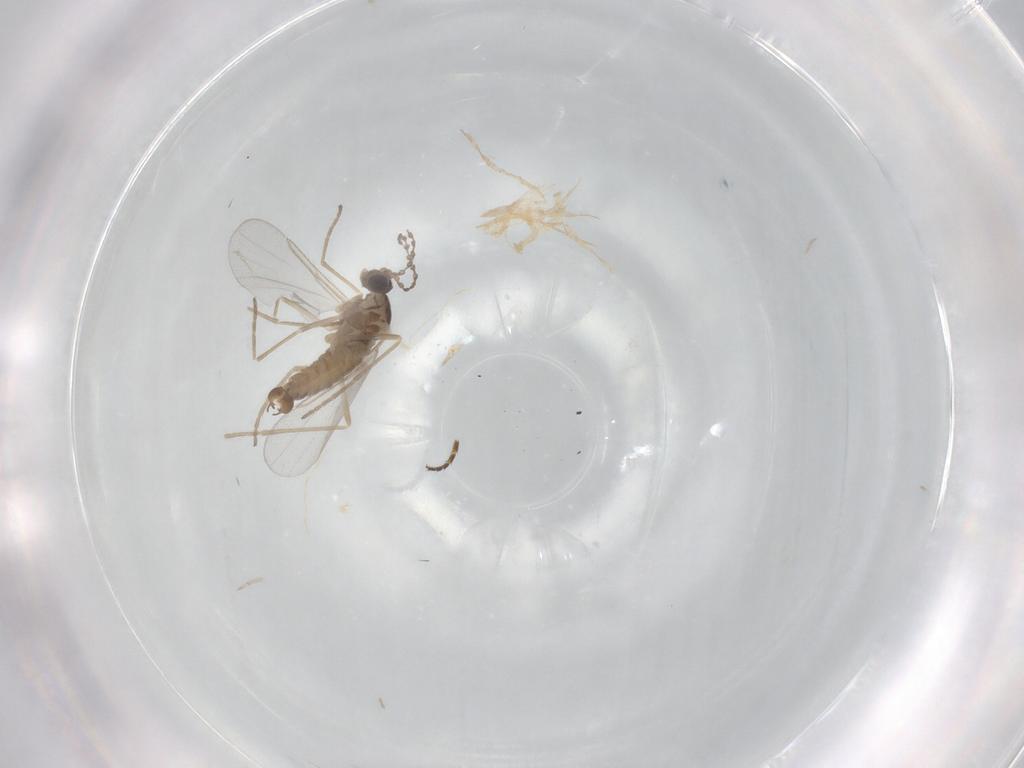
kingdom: Animalia
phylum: Arthropoda
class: Insecta
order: Diptera
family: Cecidomyiidae
